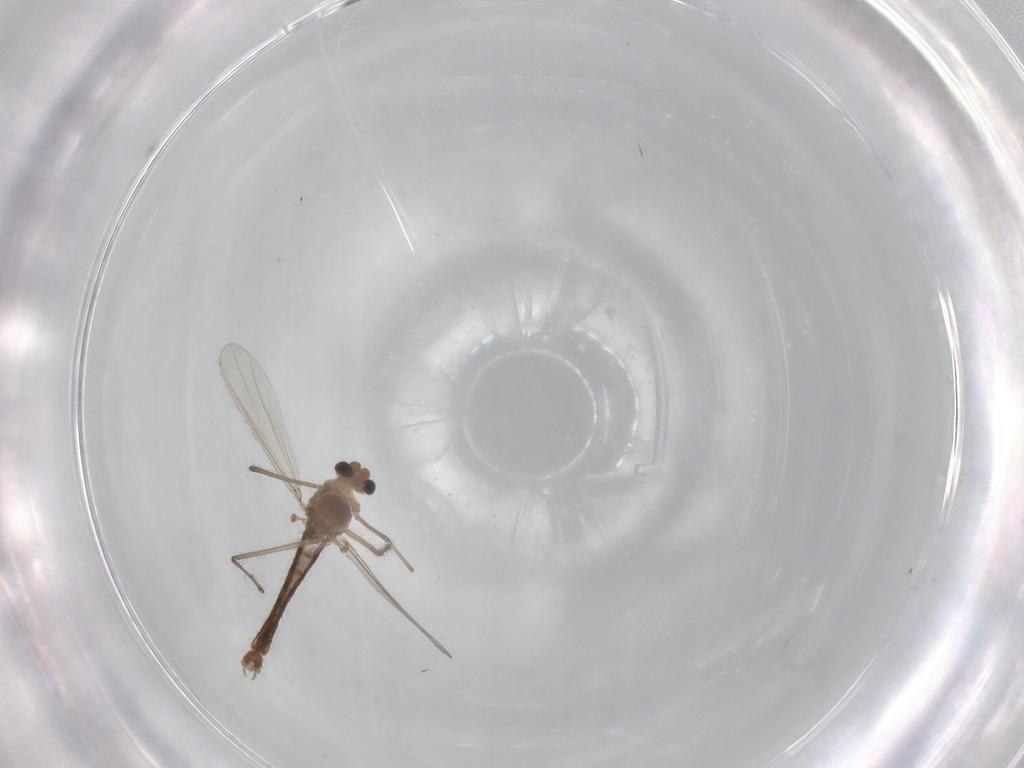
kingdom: Animalia
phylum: Arthropoda
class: Insecta
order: Diptera
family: Chironomidae
